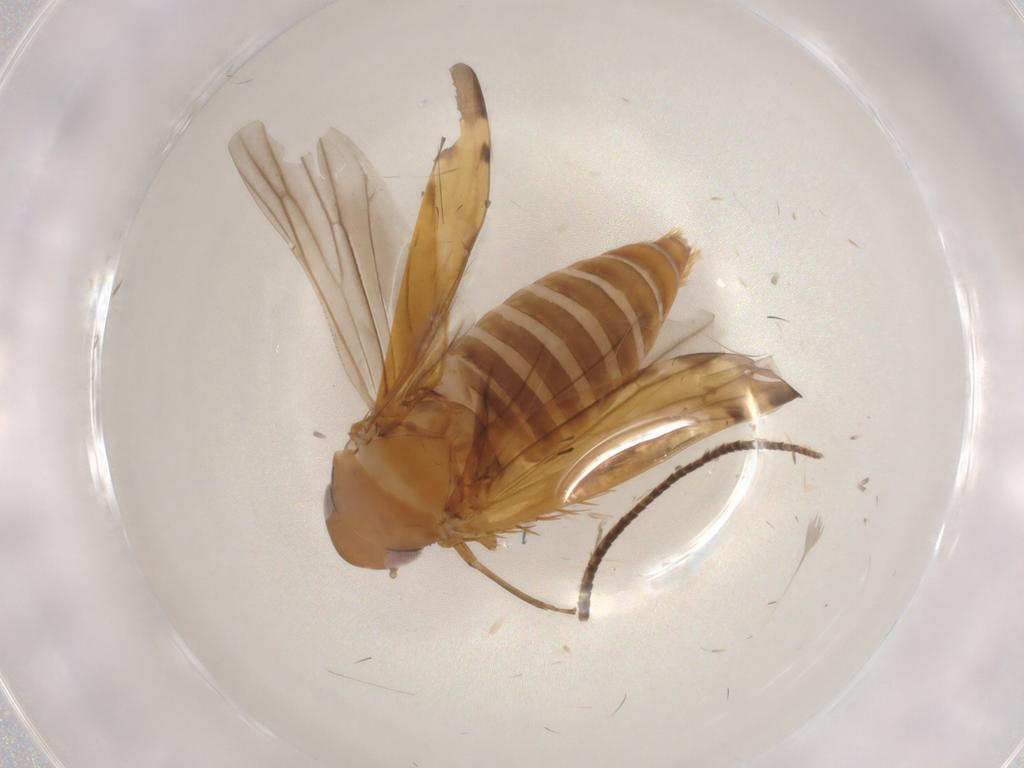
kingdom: Animalia
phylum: Arthropoda
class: Insecta
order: Hemiptera
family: Cicadellidae
